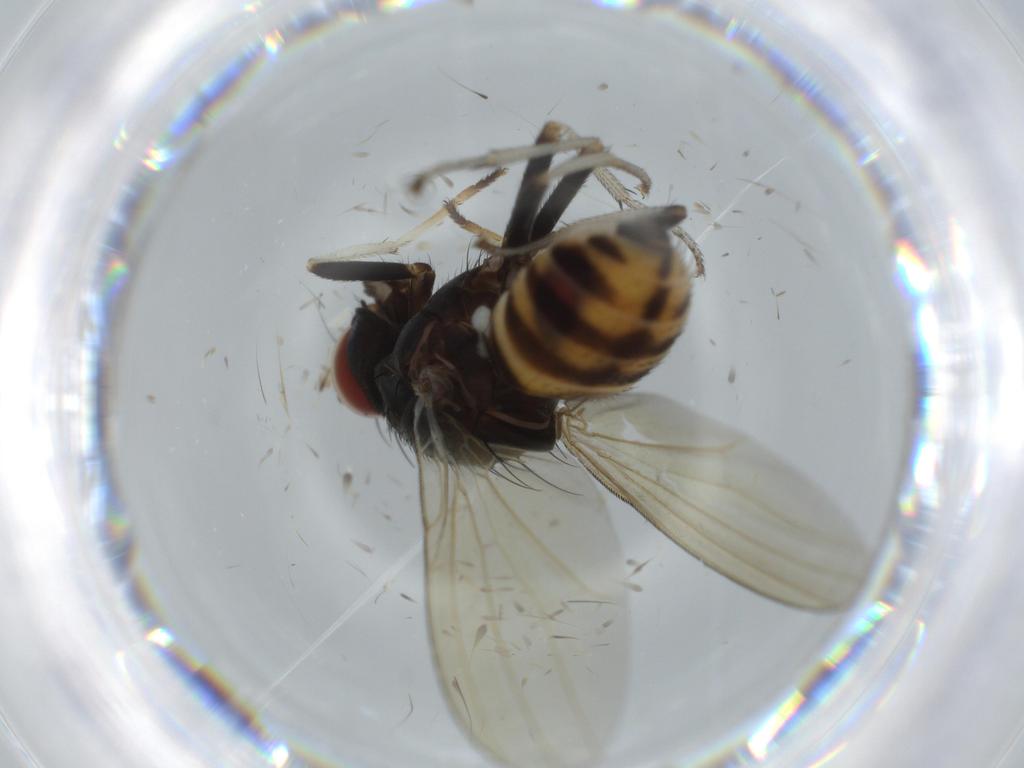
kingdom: Animalia
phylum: Arthropoda
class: Insecta
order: Diptera
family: Lauxaniidae
